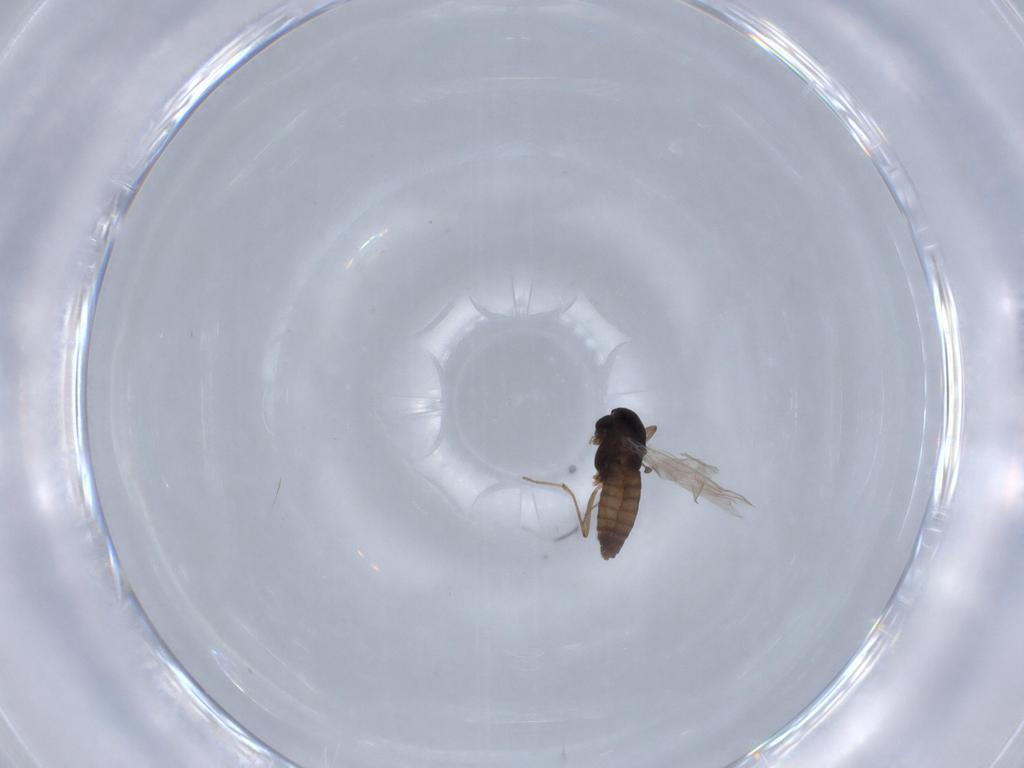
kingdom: Animalia
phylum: Arthropoda
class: Insecta
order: Diptera
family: Chironomidae
